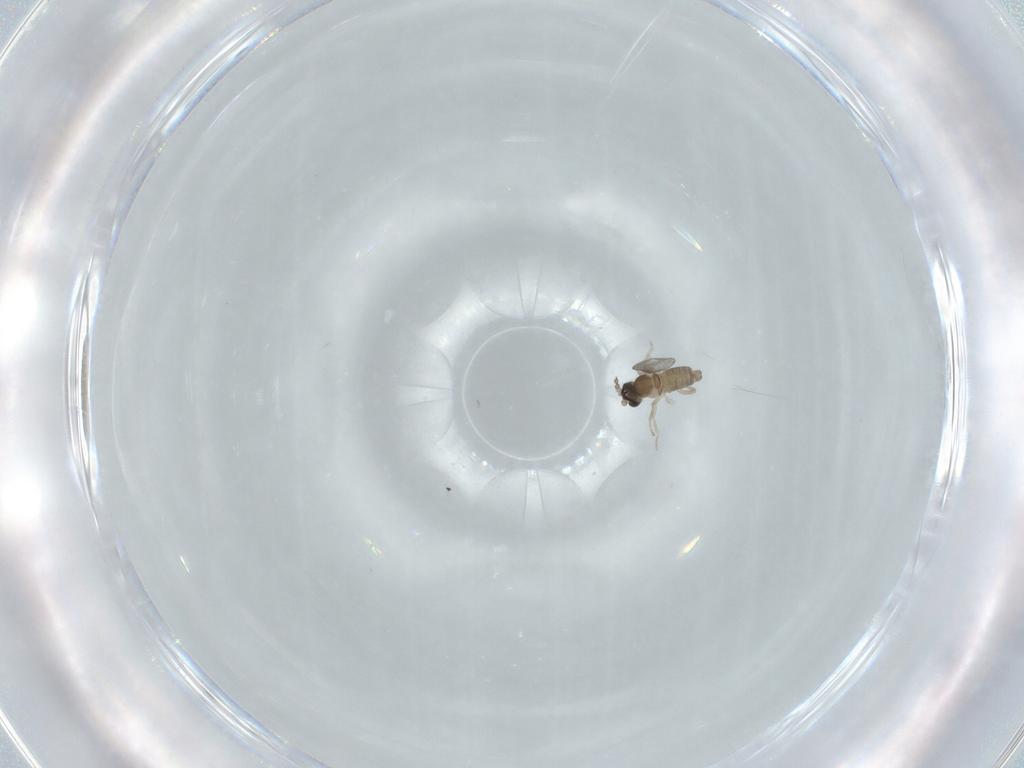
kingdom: Animalia
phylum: Arthropoda
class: Insecta
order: Diptera
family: Cecidomyiidae
